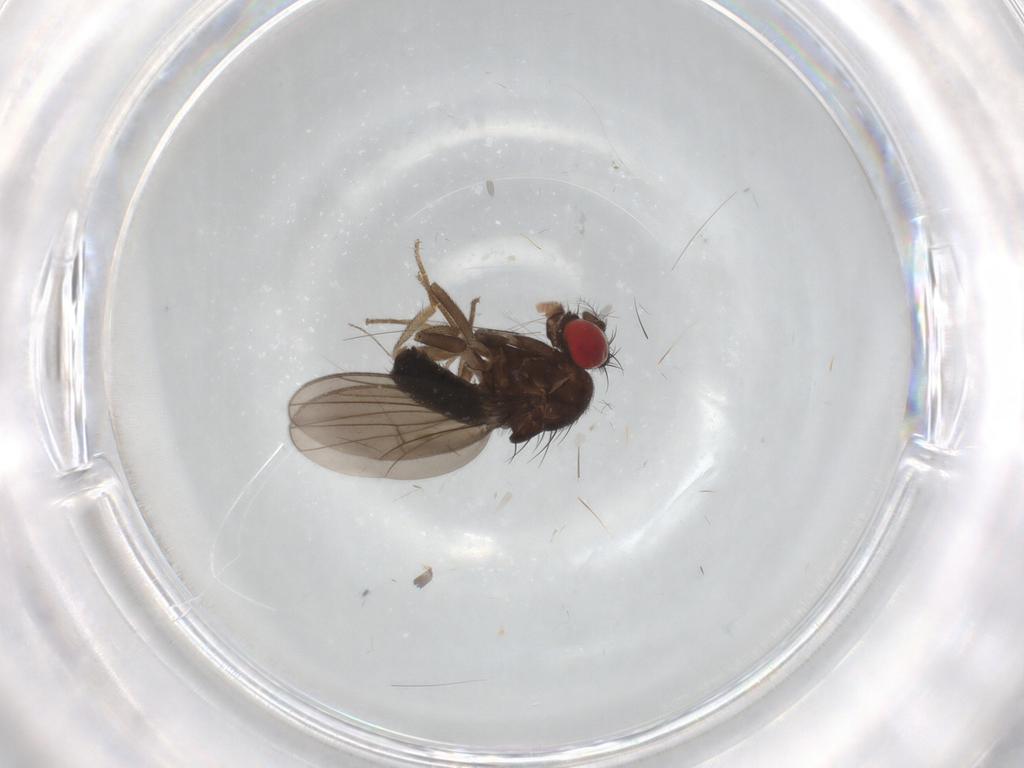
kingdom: Animalia
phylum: Arthropoda
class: Insecta
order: Diptera
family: Drosophilidae
